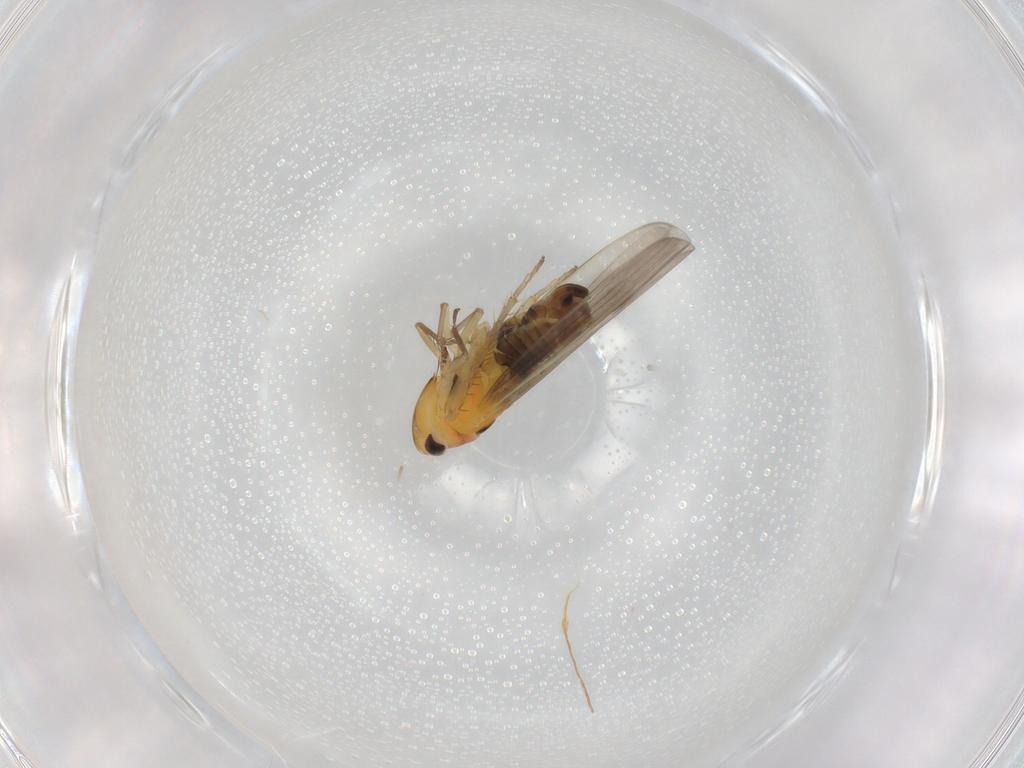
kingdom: Animalia
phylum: Arthropoda
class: Insecta
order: Hemiptera
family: Cicadellidae
